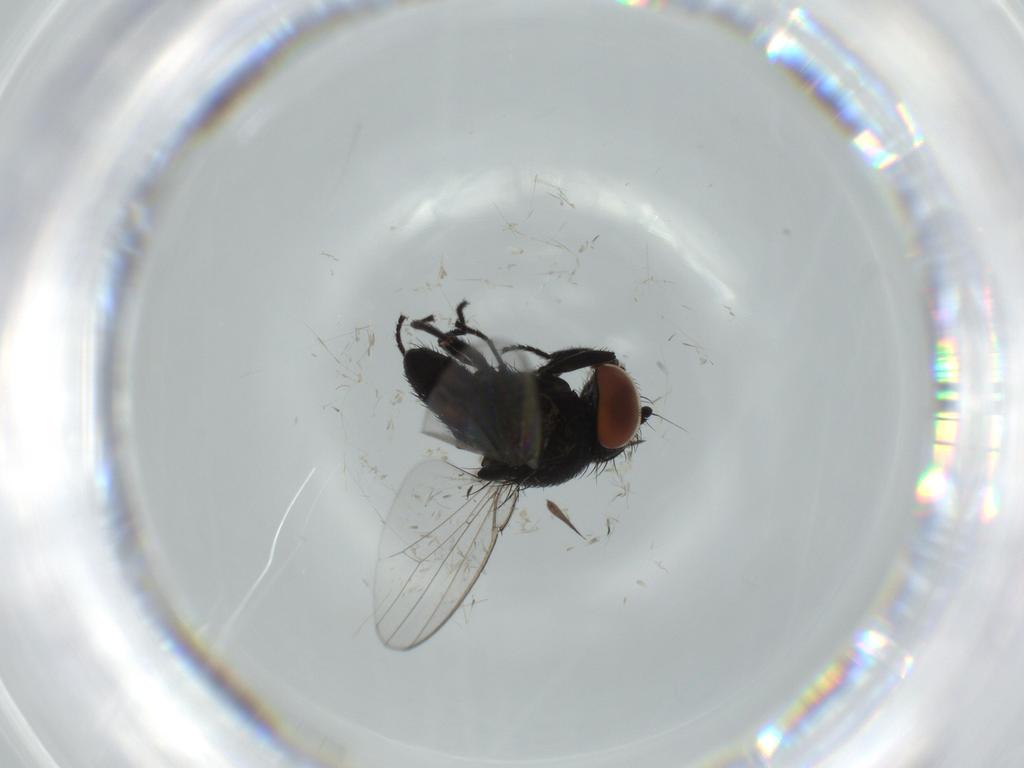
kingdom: Animalia
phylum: Arthropoda
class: Insecta
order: Diptera
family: Milichiidae
